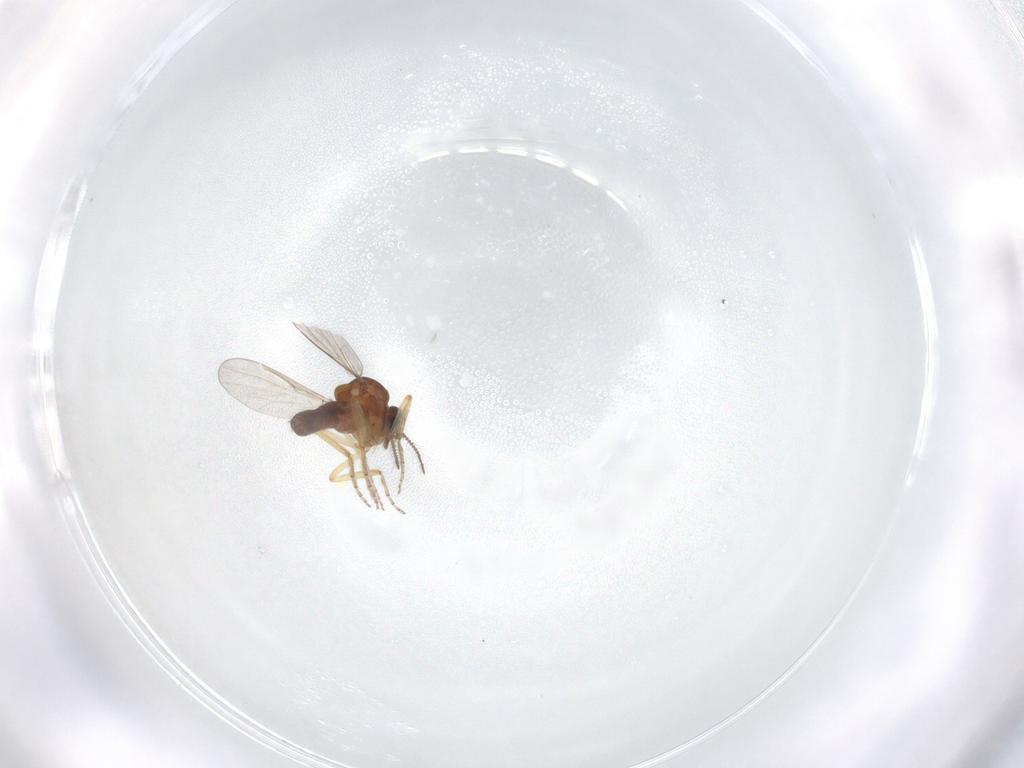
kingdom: Animalia
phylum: Arthropoda
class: Insecta
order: Diptera
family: Ceratopogonidae
